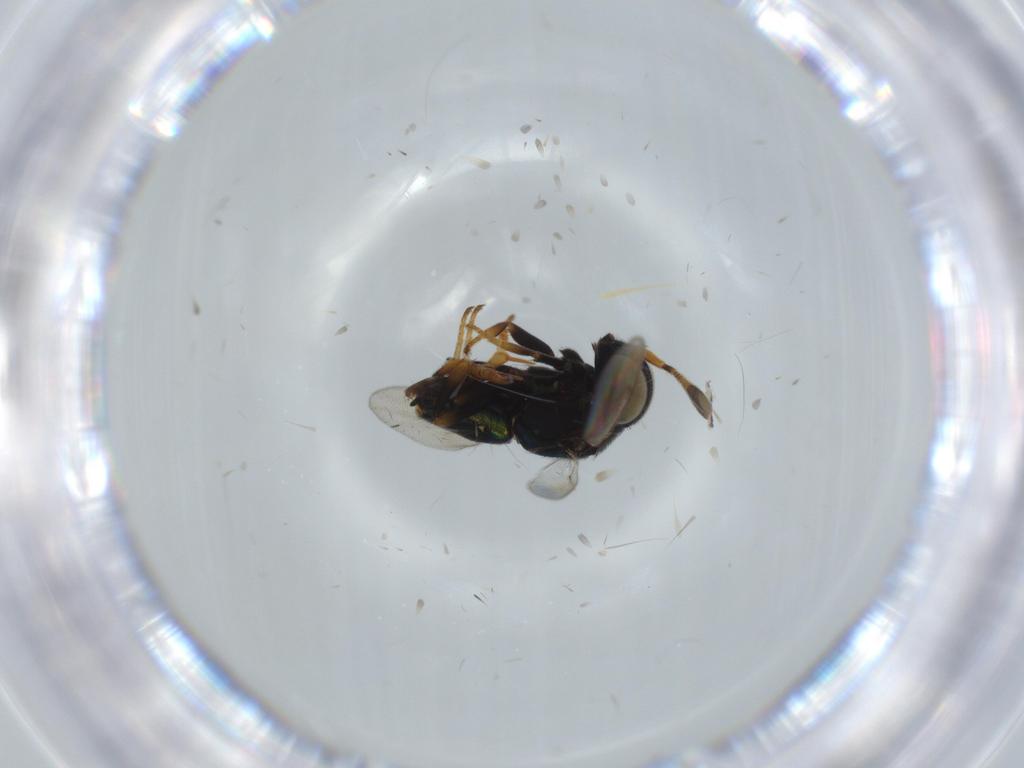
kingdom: Animalia
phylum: Arthropoda
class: Insecta
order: Hymenoptera
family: Encyrtidae
